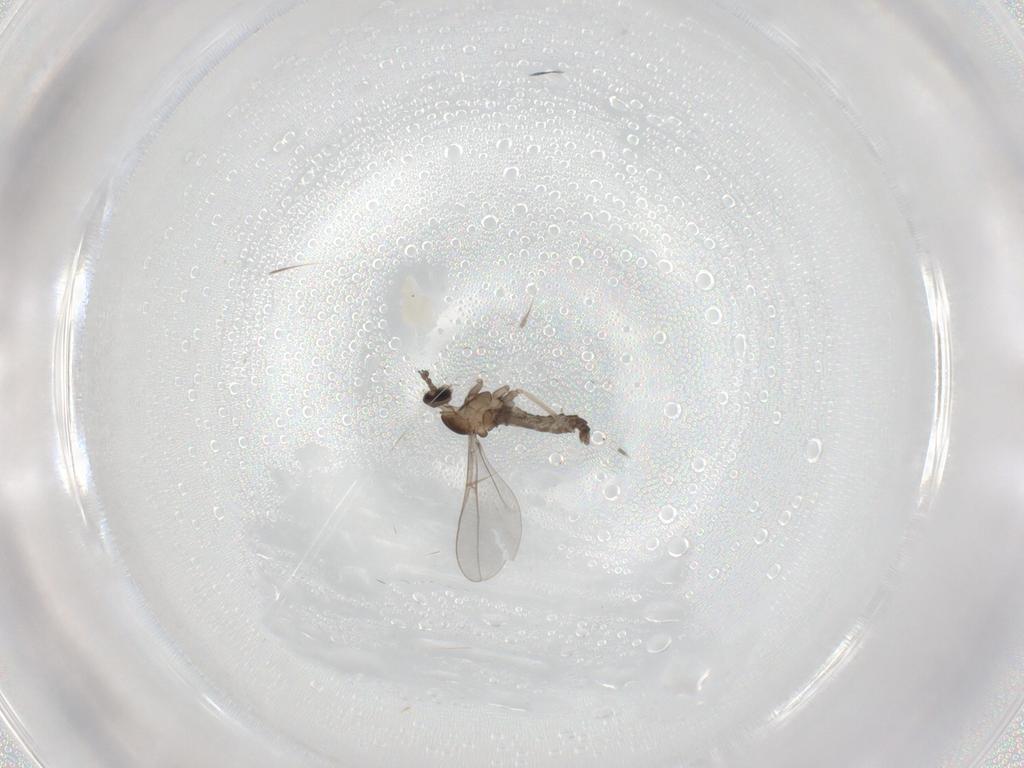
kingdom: Animalia
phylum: Arthropoda
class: Insecta
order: Diptera
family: Cecidomyiidae
